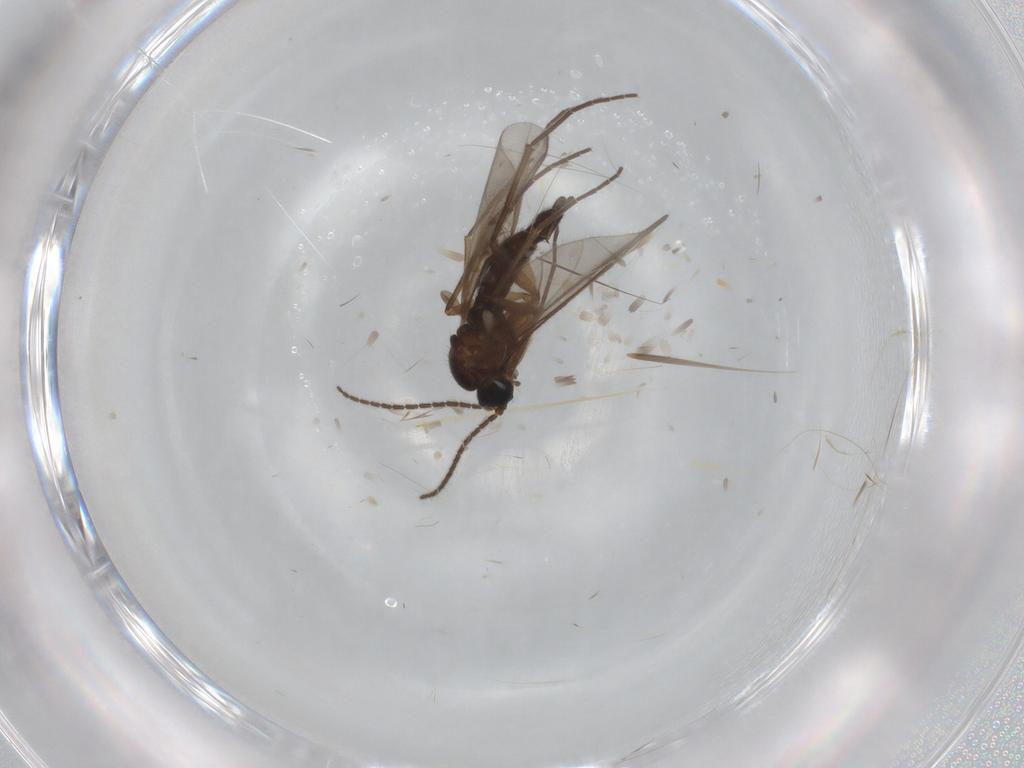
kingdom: Animalia
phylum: Arthropoda
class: Insecta
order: Diptera
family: Sciaridae
